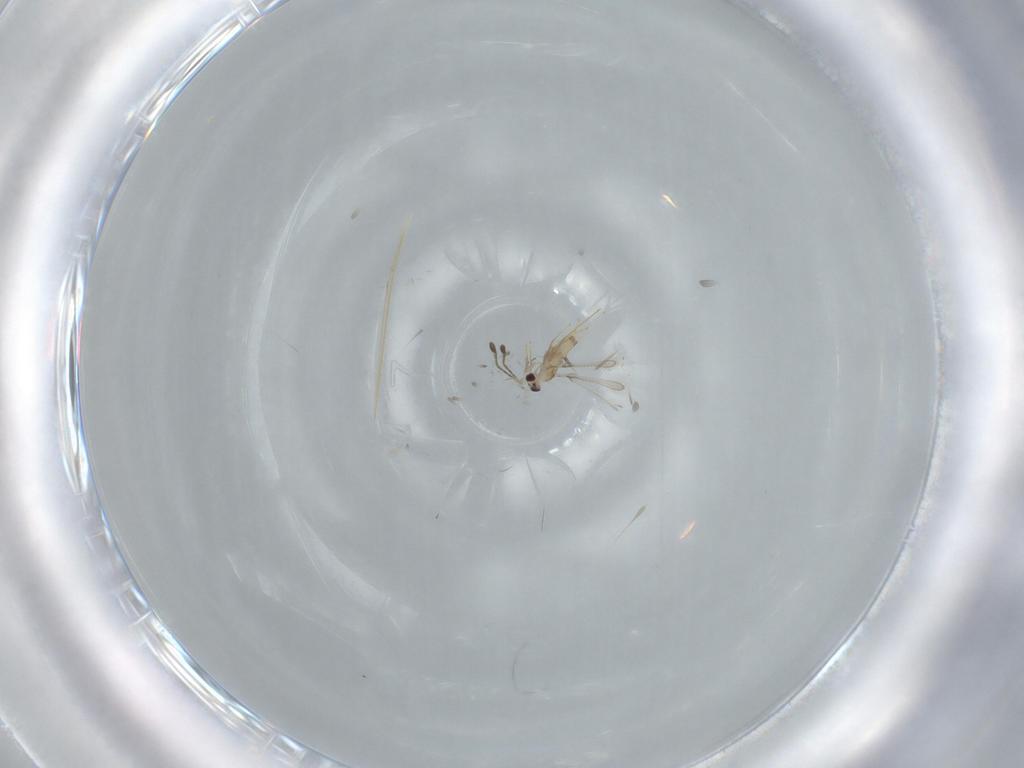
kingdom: Animalia
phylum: Arthropoda
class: Insecta
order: Hymenoptera
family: Mymaridae
